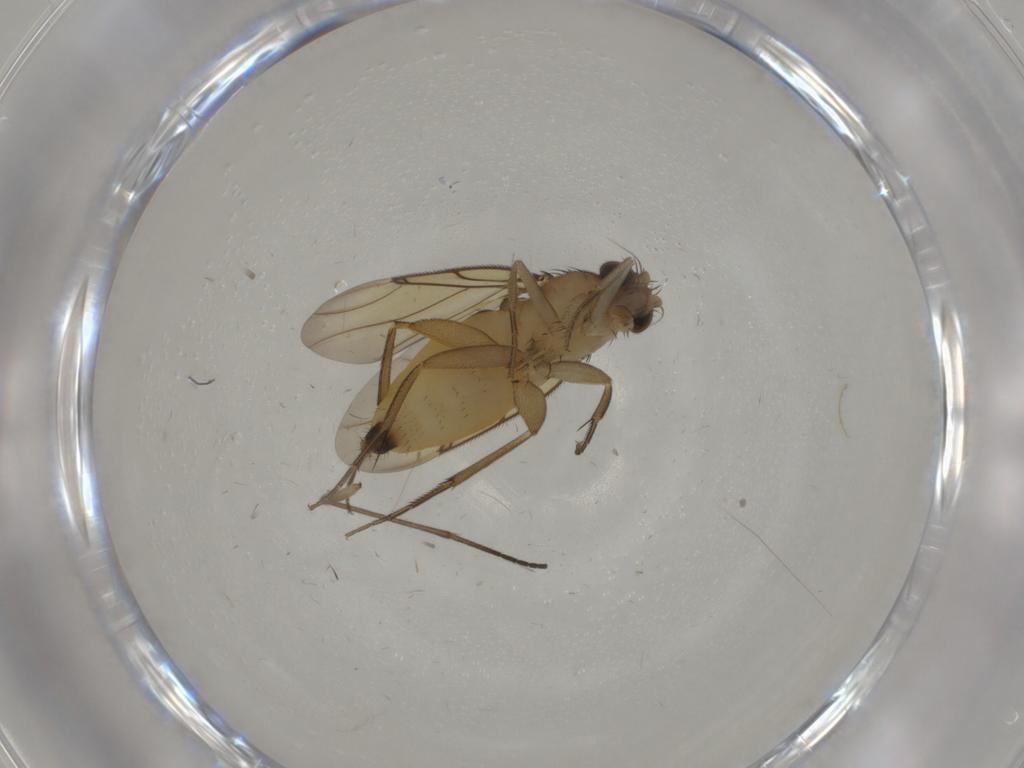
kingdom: Animalia
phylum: Arthropoda
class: Insecta
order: Diptera
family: Sciaridae
